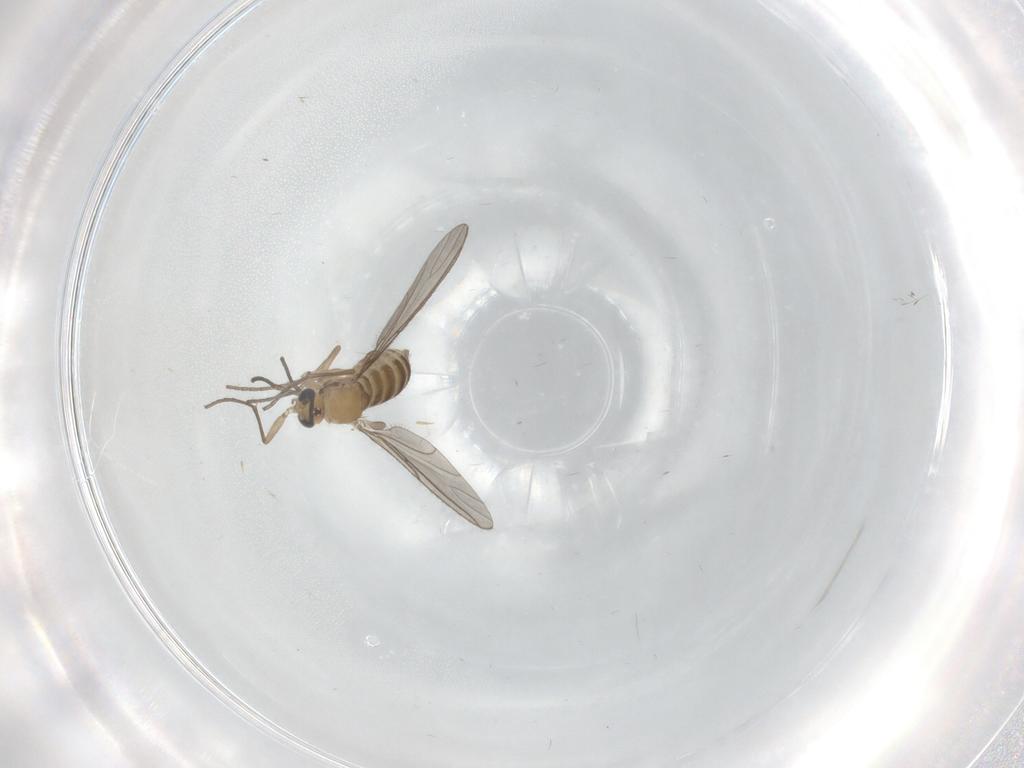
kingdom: Animalia
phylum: Arthropoda
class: Insecta
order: Diptera
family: Sciaridae
